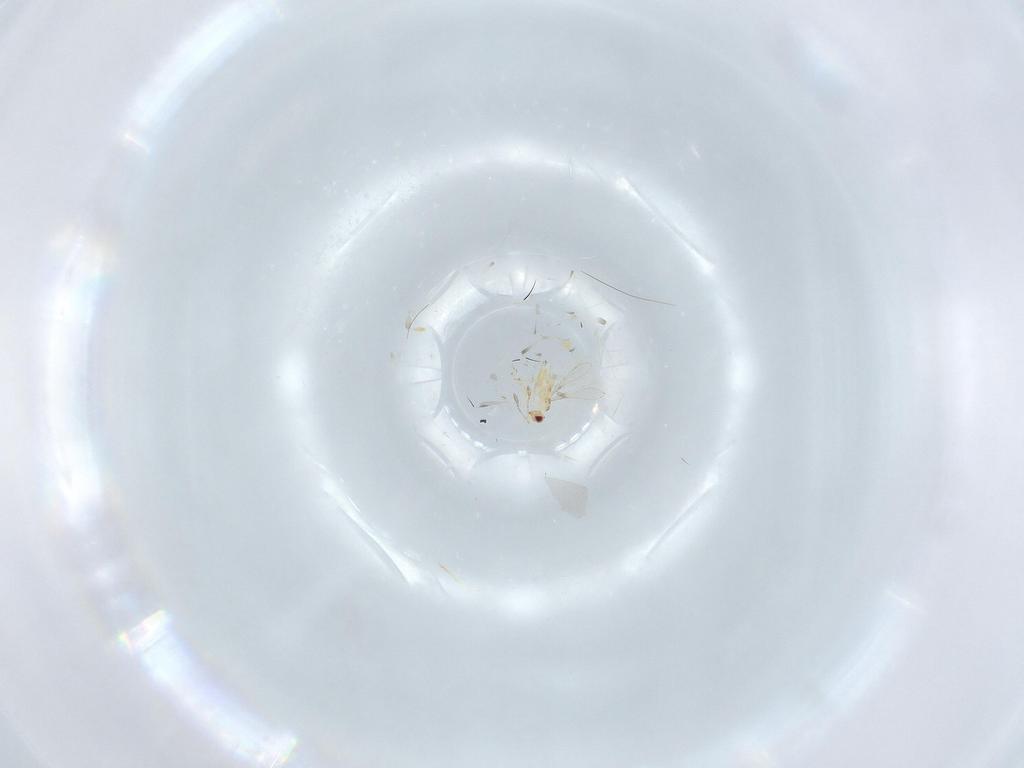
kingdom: Animalia
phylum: Arthropoda
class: Insecta
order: Hymenoptera
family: Mymaridae
